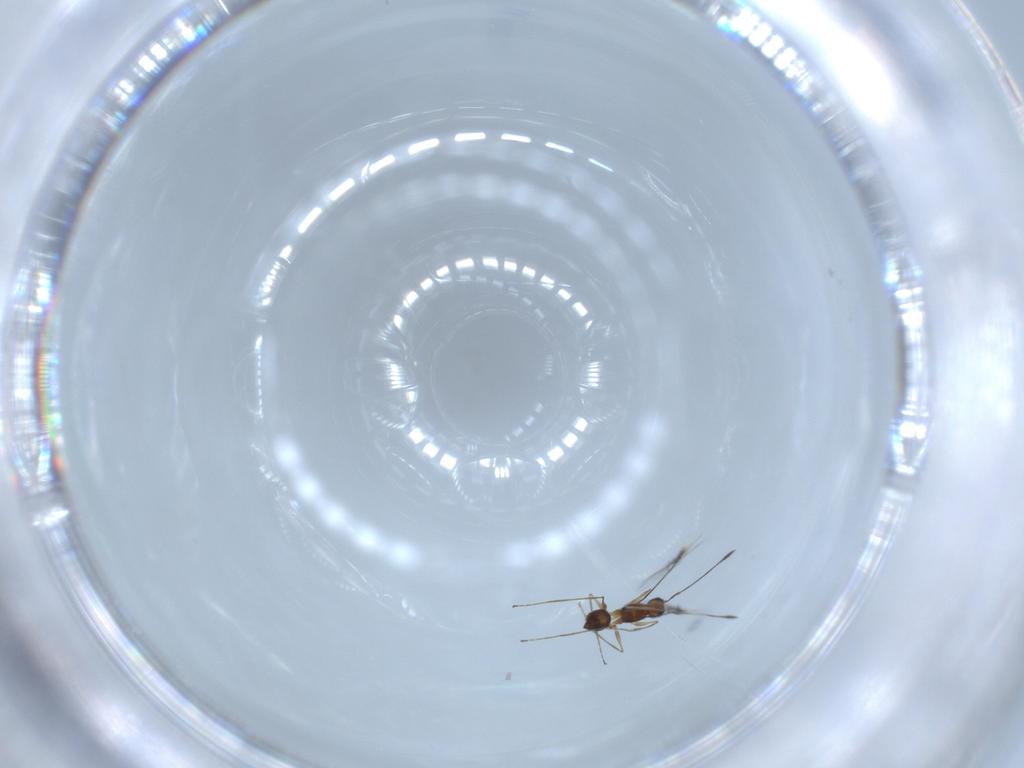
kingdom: Animalia
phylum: Arthropoda
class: Insecta
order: Hymenoptera
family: Mymaridae
